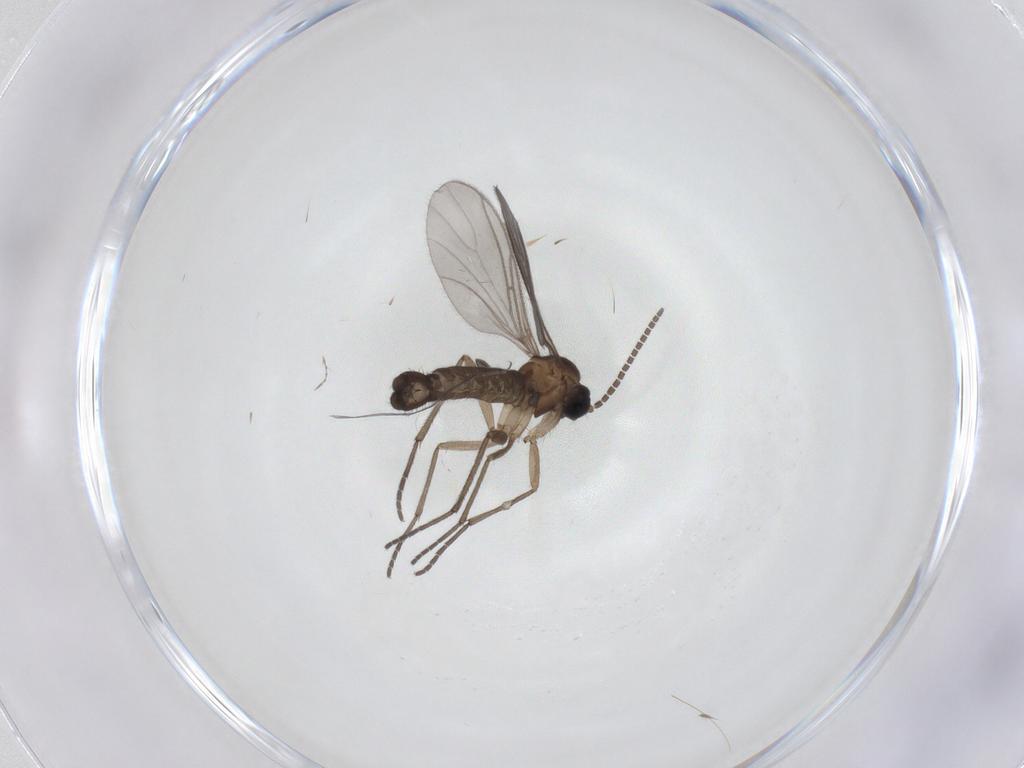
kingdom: Animalia
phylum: Arthropoda
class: Insecta
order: Diptera
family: Sciaridae
